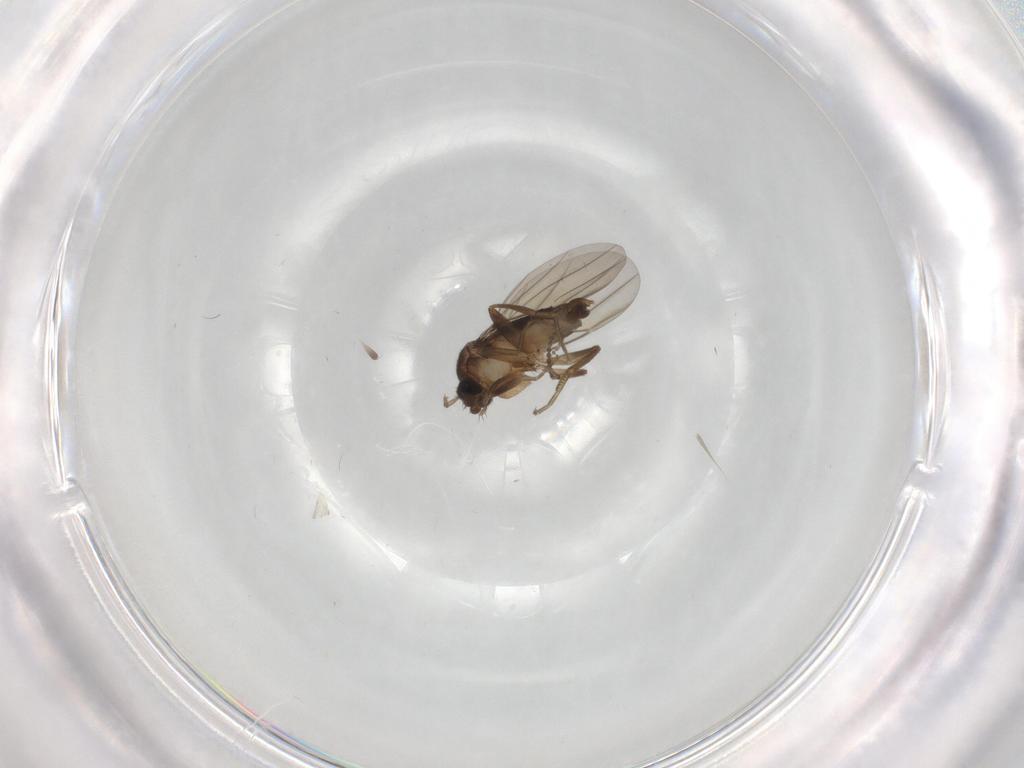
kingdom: Animalia
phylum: Arthropoda
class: Insecta
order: Diptera
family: Phoridae
